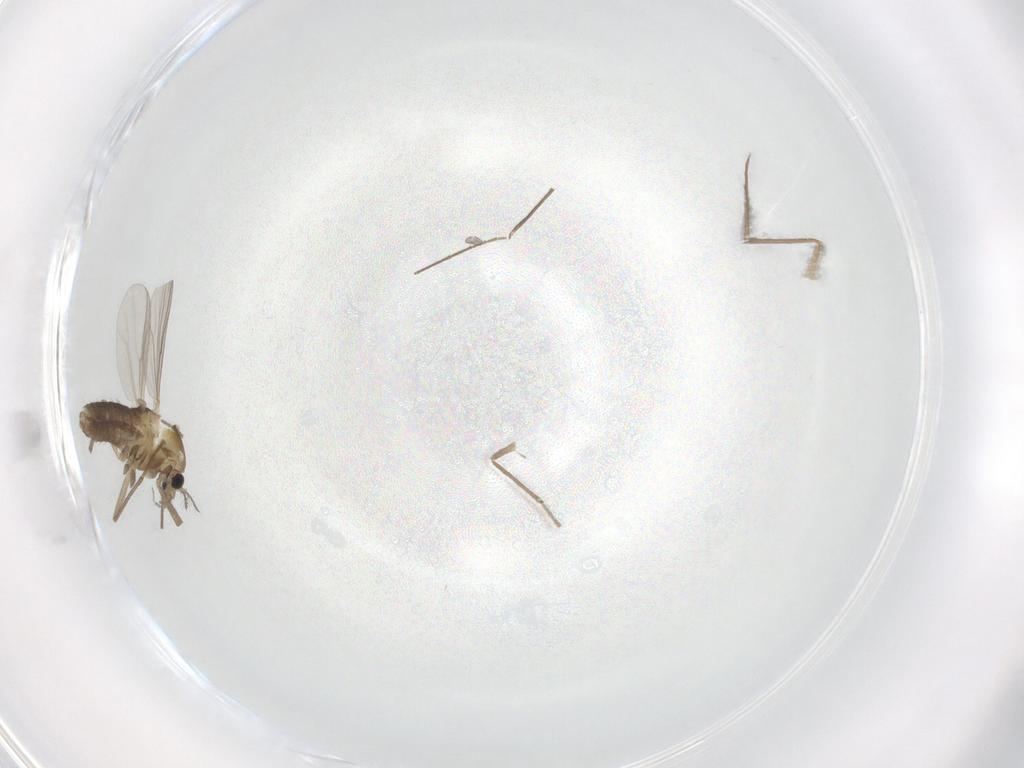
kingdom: Animalia
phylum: Arthropoda
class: Insecta
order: Diptera
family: Chironomidae
